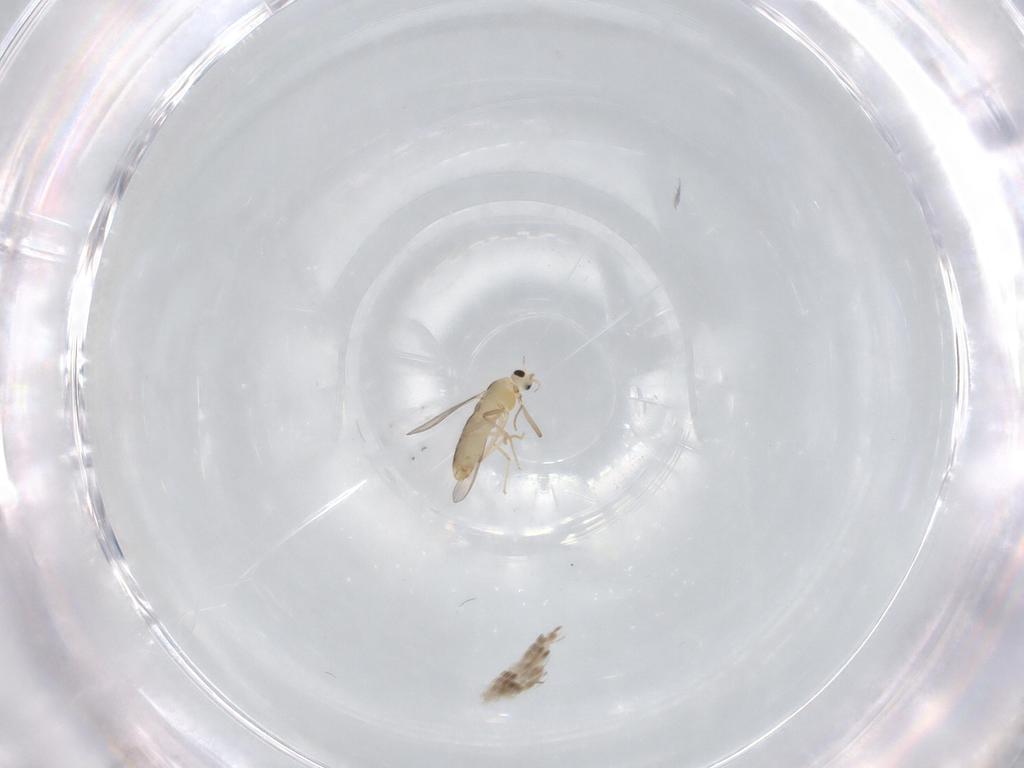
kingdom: Animalia
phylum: Arthropoda
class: Insecta
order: Diptera
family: Chironomidae
